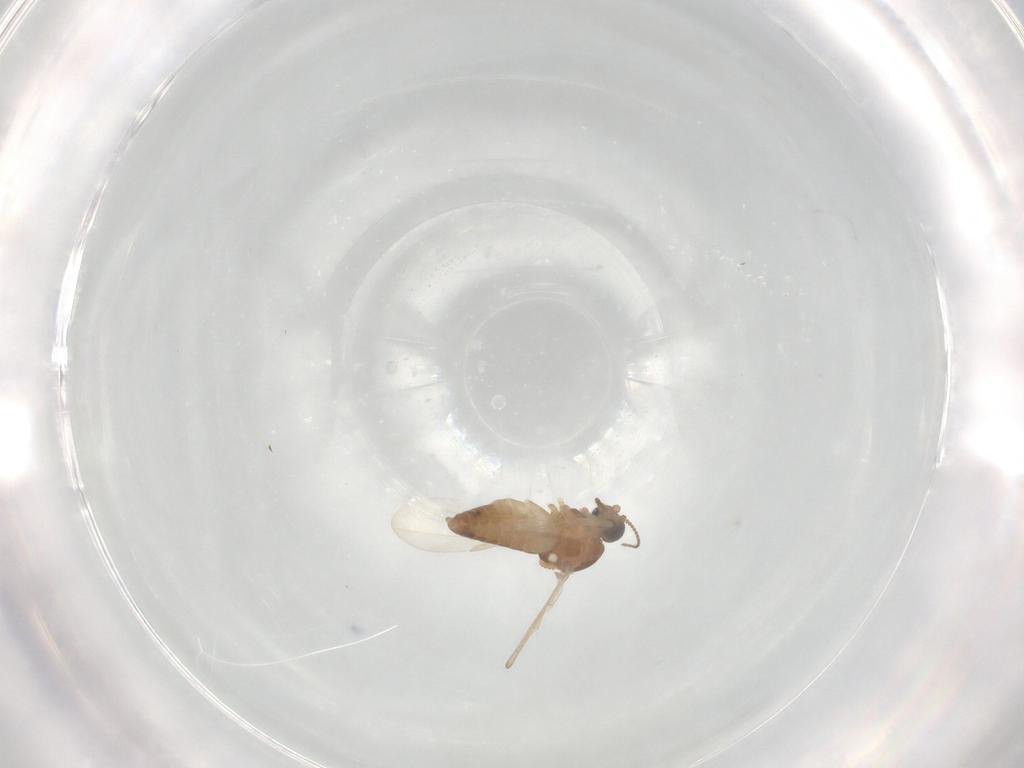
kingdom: Animalia
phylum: Arthropoda
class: Insecta
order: Diptera
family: Ceratopogonidae
